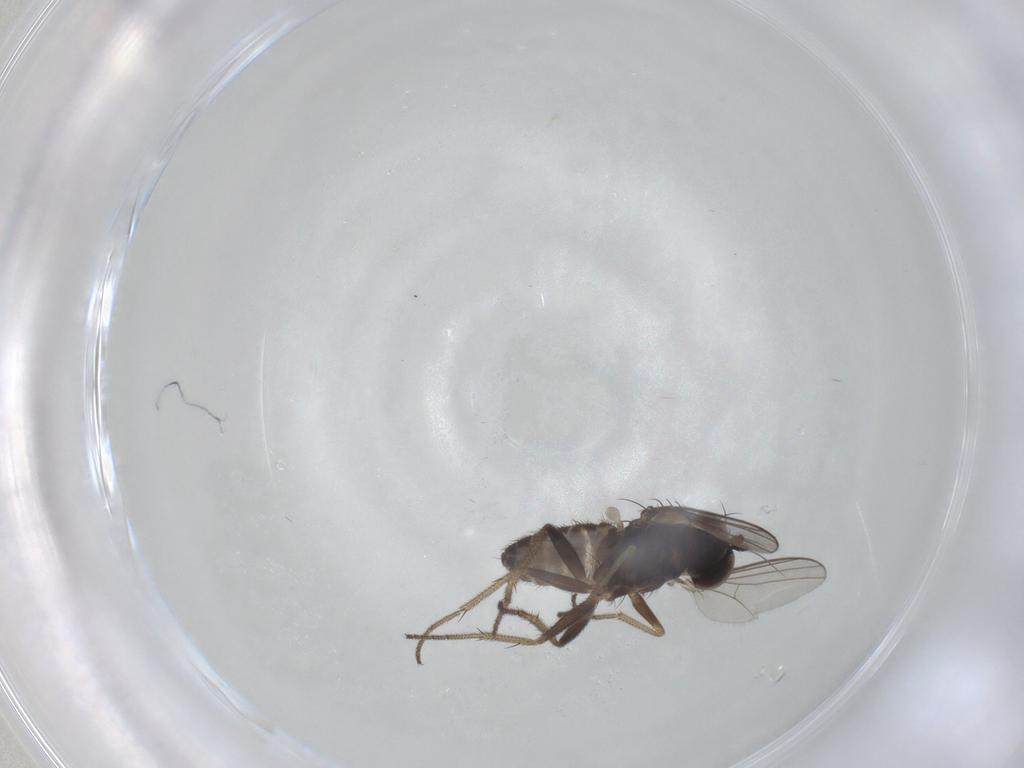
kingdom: Animalia
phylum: Arthropoda
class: Insecta
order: Diptera
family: Dolichopodidae
